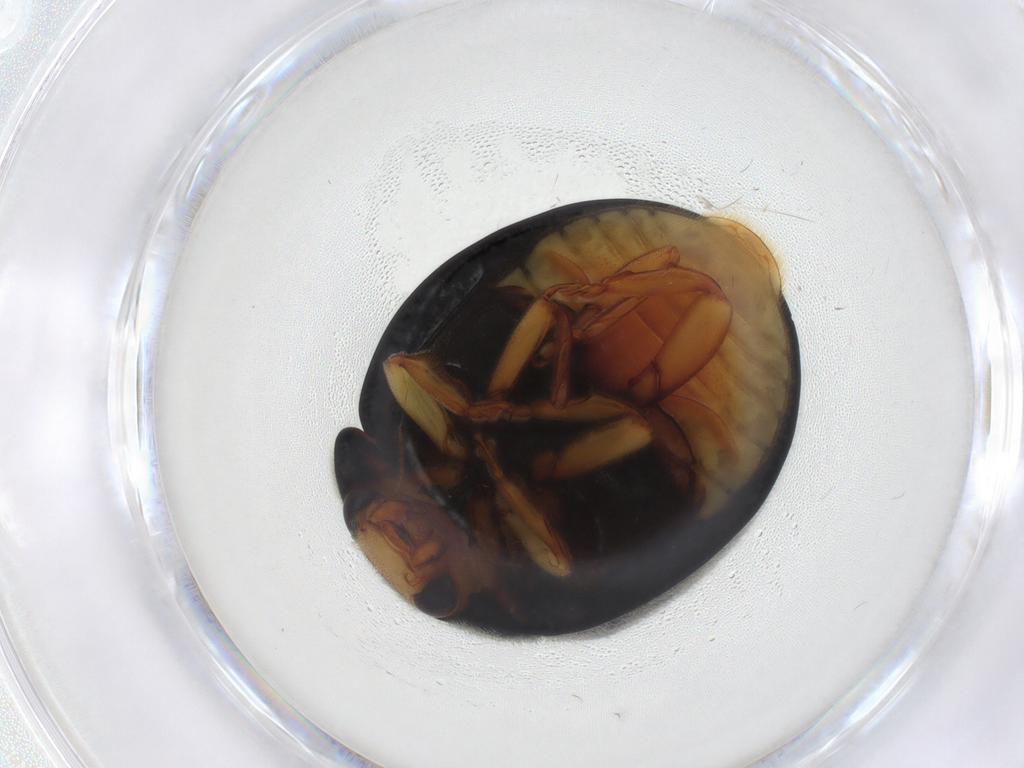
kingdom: Animalia
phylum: Arthropoda
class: Insecta
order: Coleoptera
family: Coccinellidae
